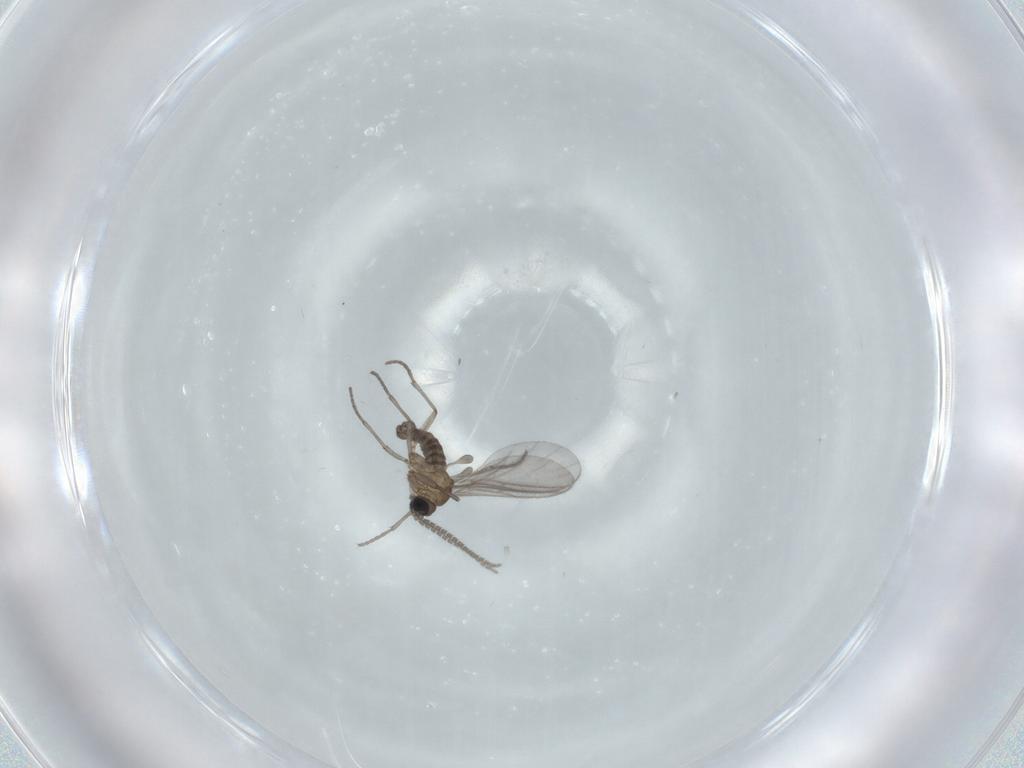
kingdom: Animalia
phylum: Arthropoda
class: Insecta
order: Diptera
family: Sciaridae
